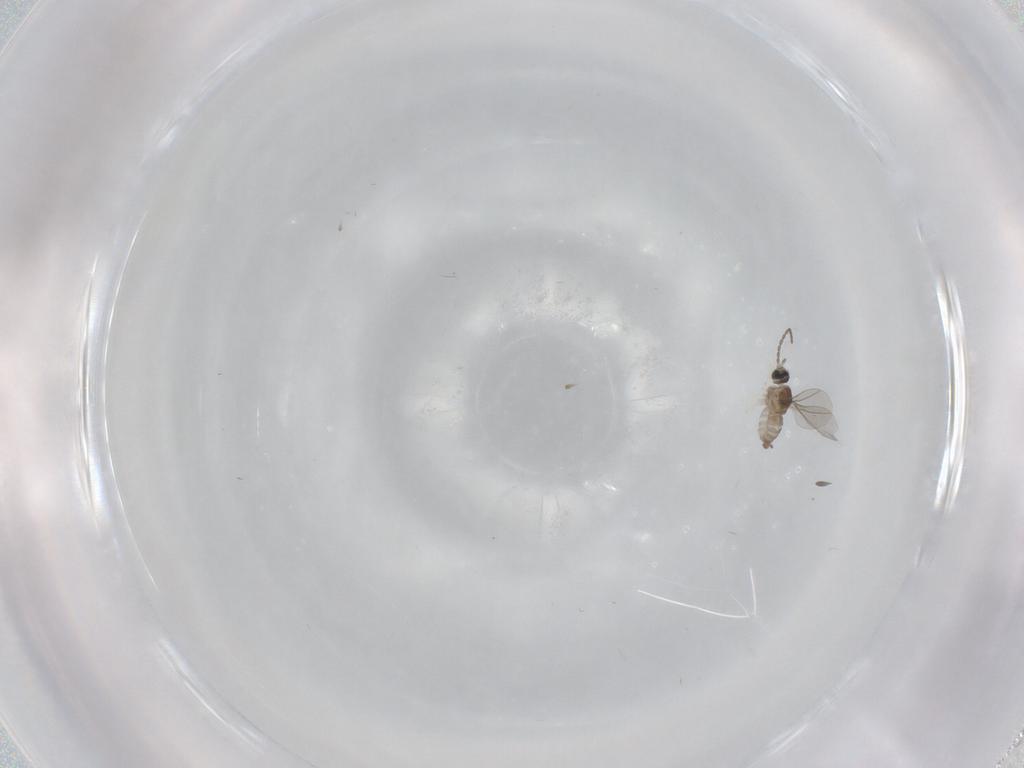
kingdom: Animalia
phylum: Arthropoda
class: Insecta
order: Diptera
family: Cecidomyiidae
